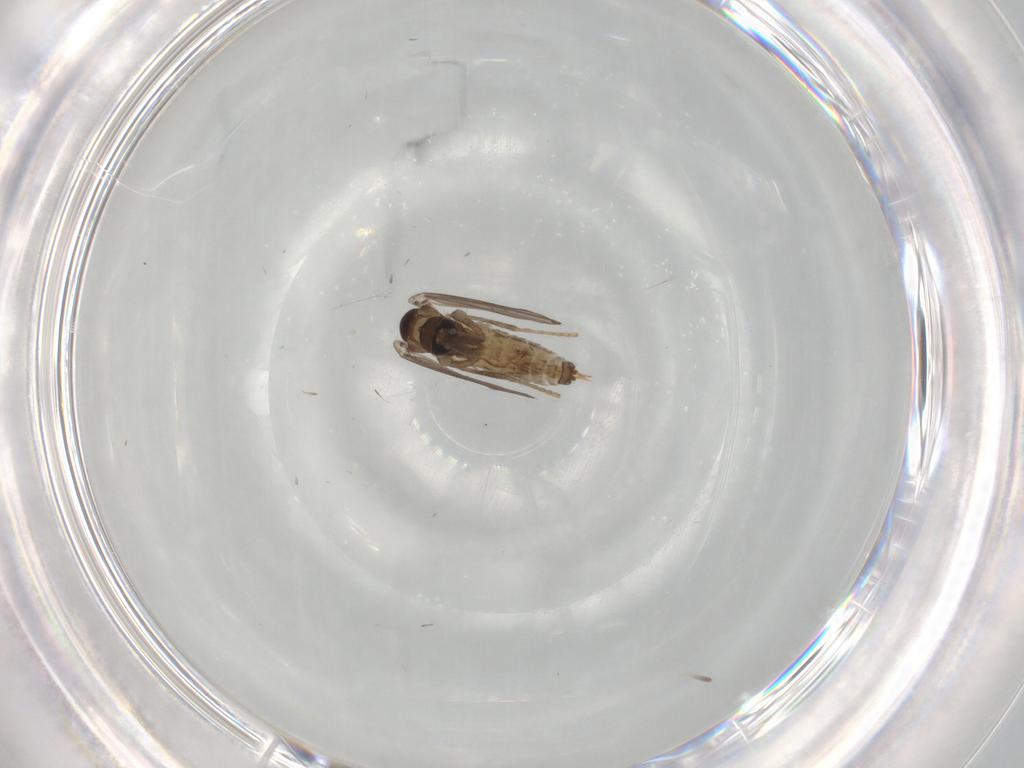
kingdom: Animalia
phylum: Arthropoda
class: Insecta
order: Diptera
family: Psychodidae
